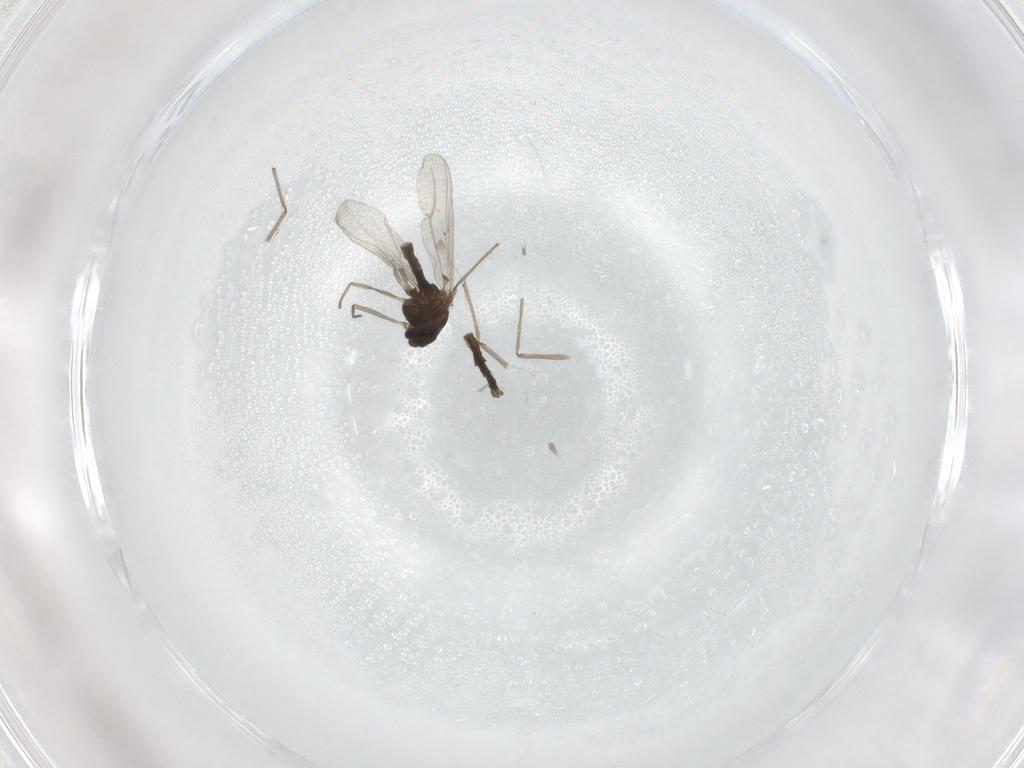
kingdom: Animalia
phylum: Arthropoda
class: Insecta
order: Diptera
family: Chironomidae
